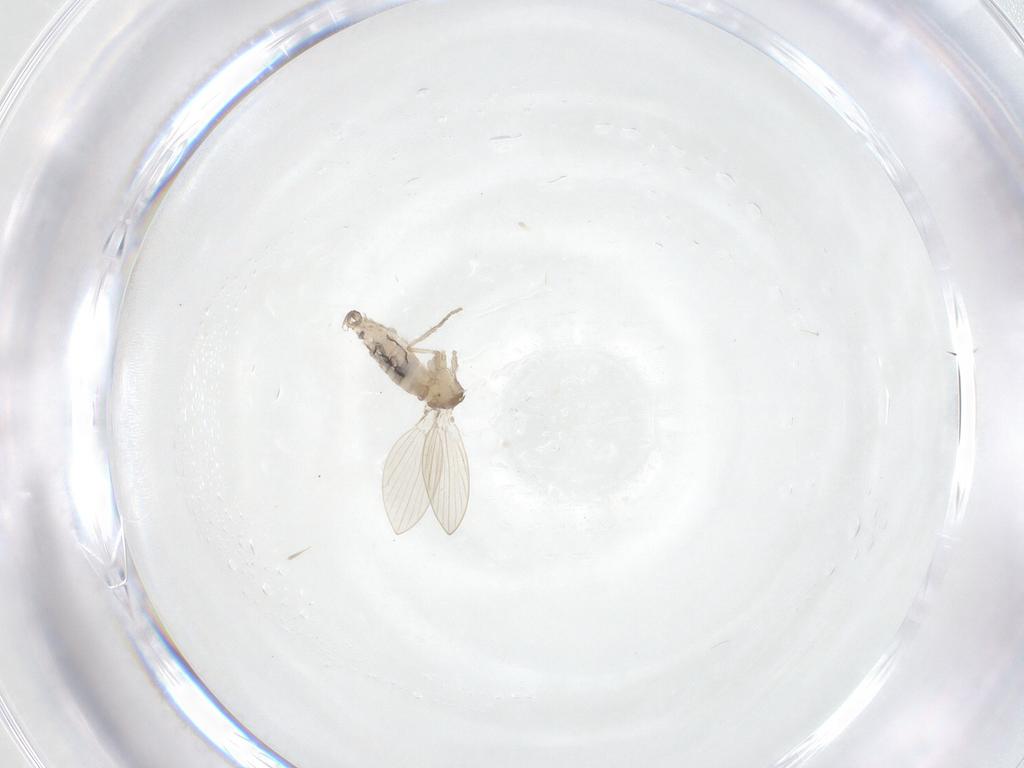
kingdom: Animalia
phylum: Arthropoda
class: Insecta
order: Diptera
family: Psychodidae
